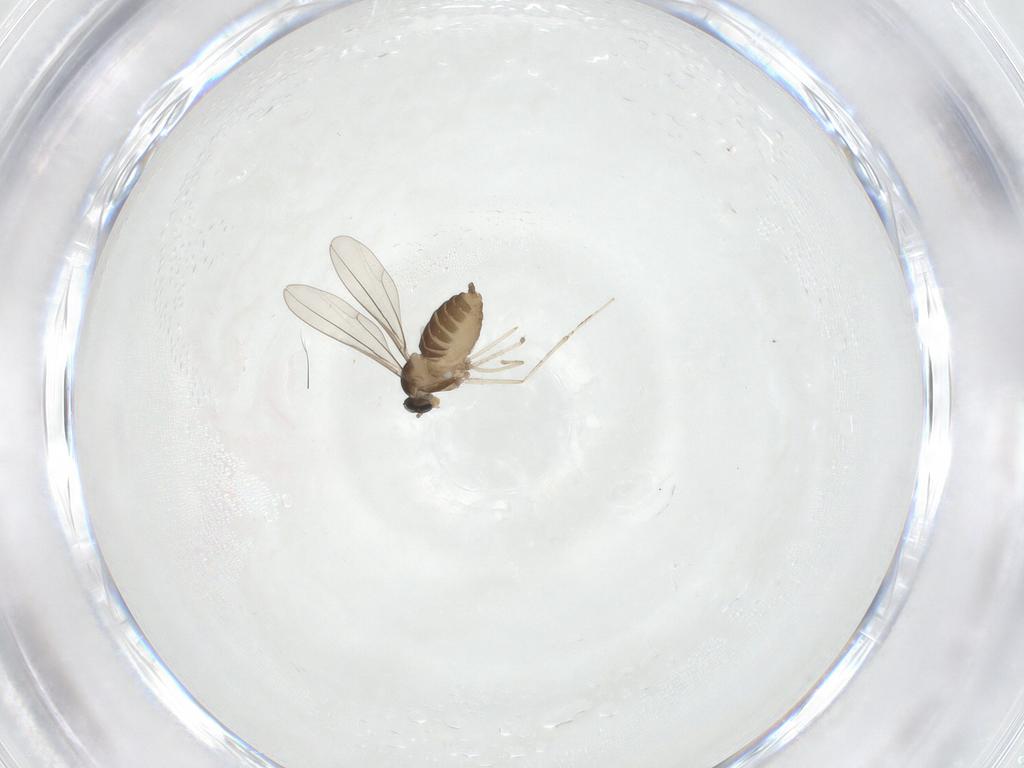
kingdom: Animalia
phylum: Arthropoda
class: Insecta
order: Diptera
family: Cecidomyiidae
